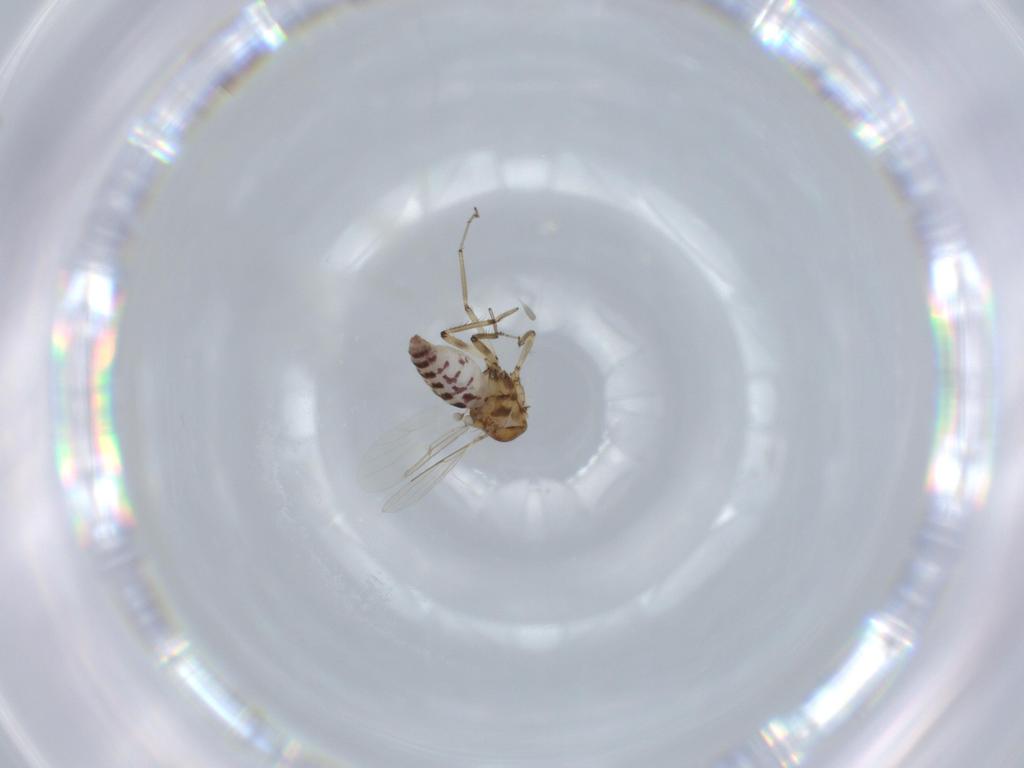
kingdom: Animalia
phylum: Arthropoda
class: Insecta
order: Diptera
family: Ceratopogonidae
